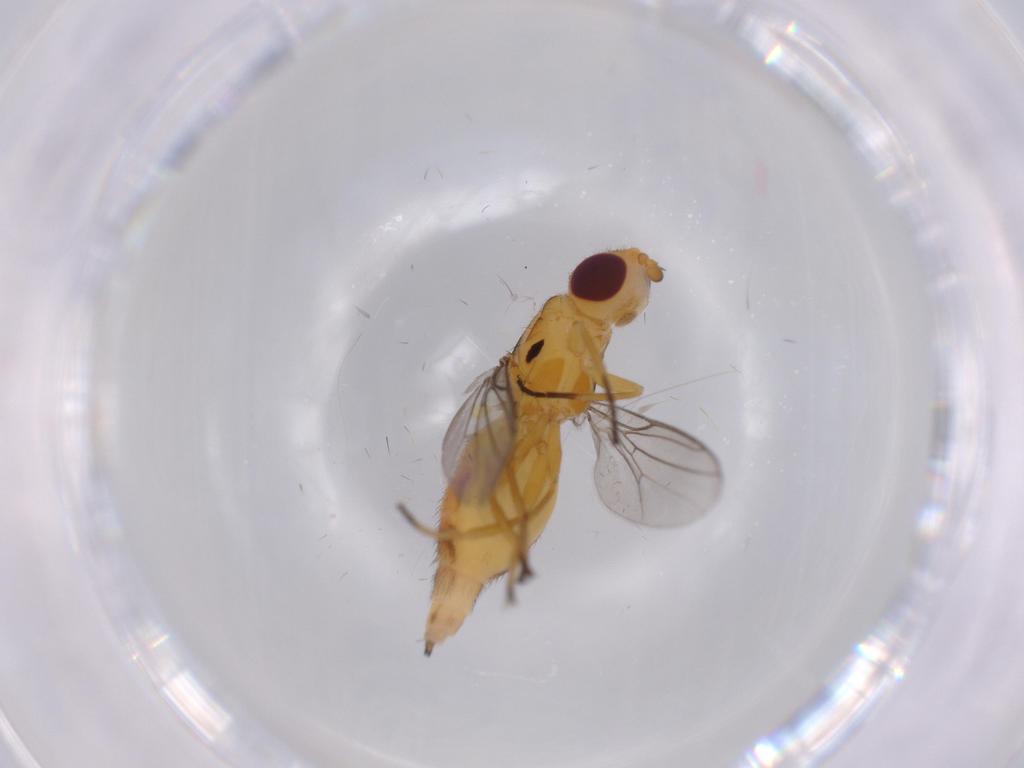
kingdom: Animalia
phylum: Arthropoda
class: Insecta
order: Diptera
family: Chloropidae
